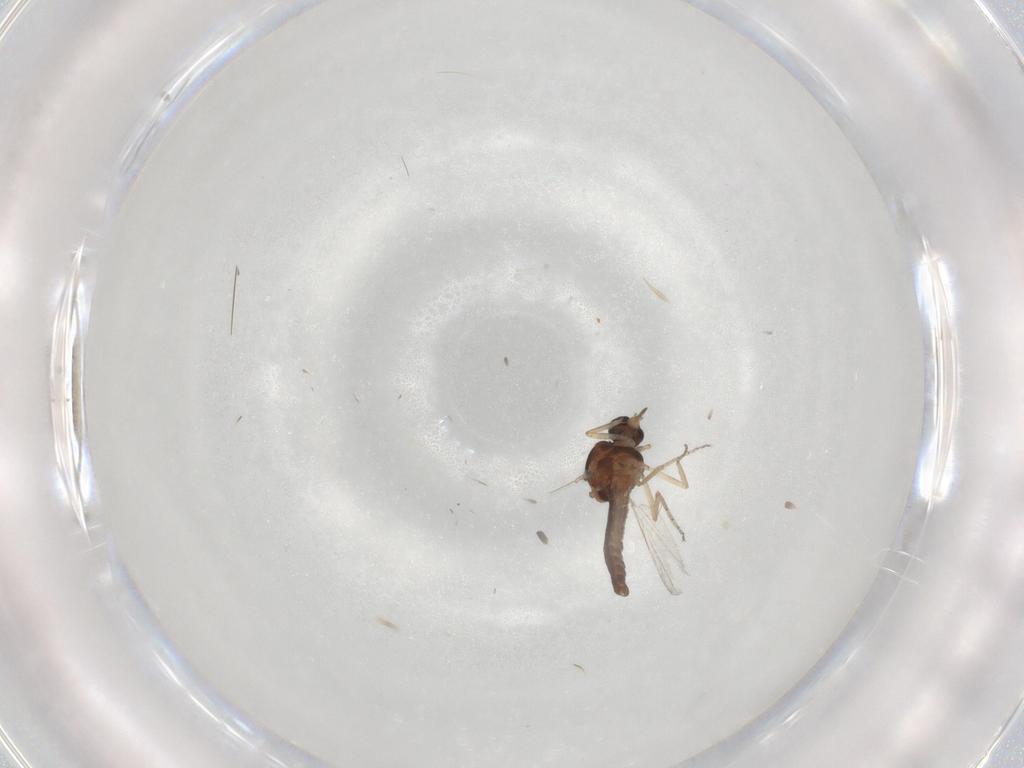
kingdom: Animalia
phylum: Arthropoda
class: Insecta
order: Diptera
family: Ceratopogonidae
